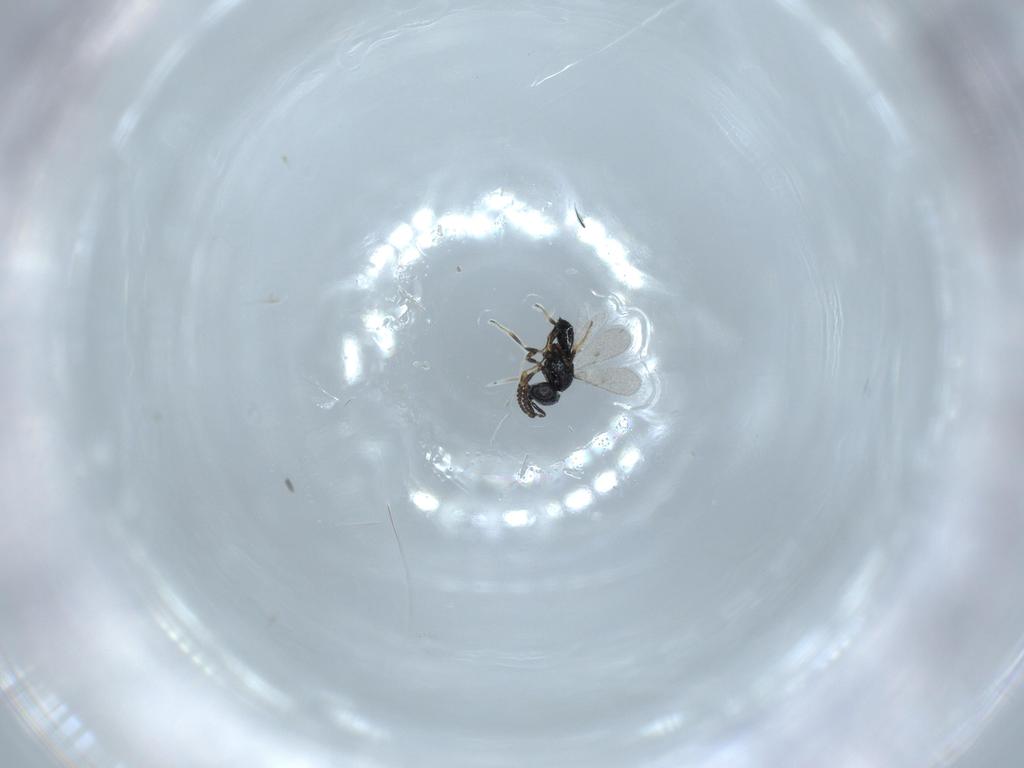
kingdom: Animalia
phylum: Arthropoda
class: Insecta
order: Hymenoptera
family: Scelionidae
